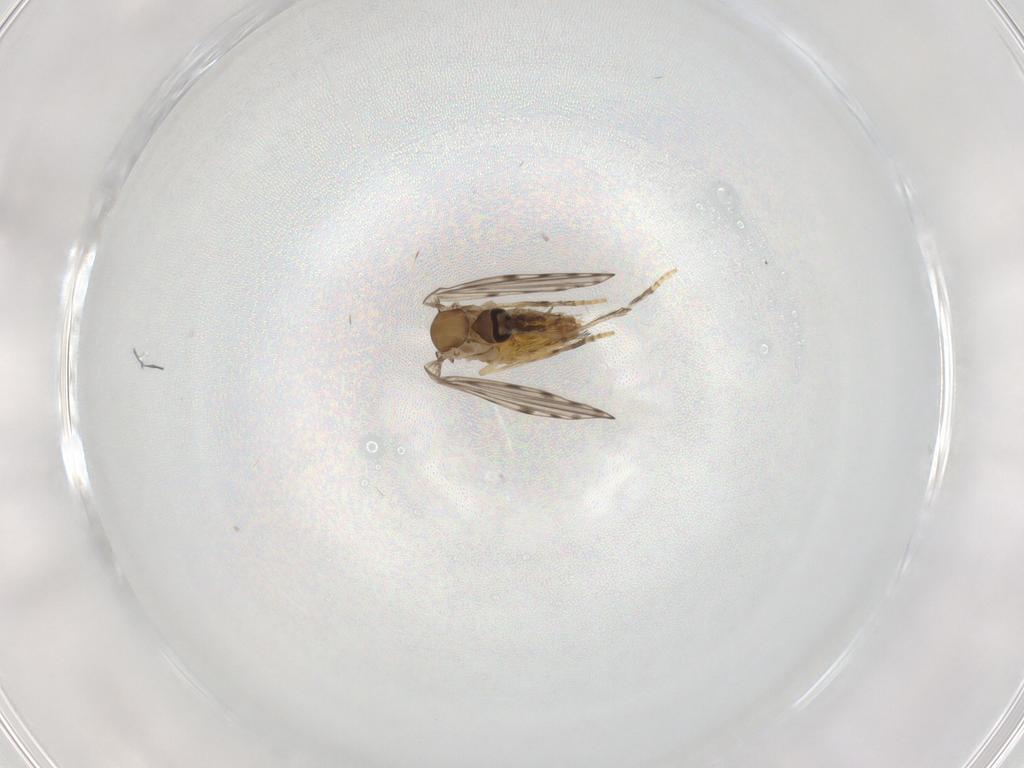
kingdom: Animalia
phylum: Arthropoda
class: Insecta
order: Diptera
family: Psychodidae
